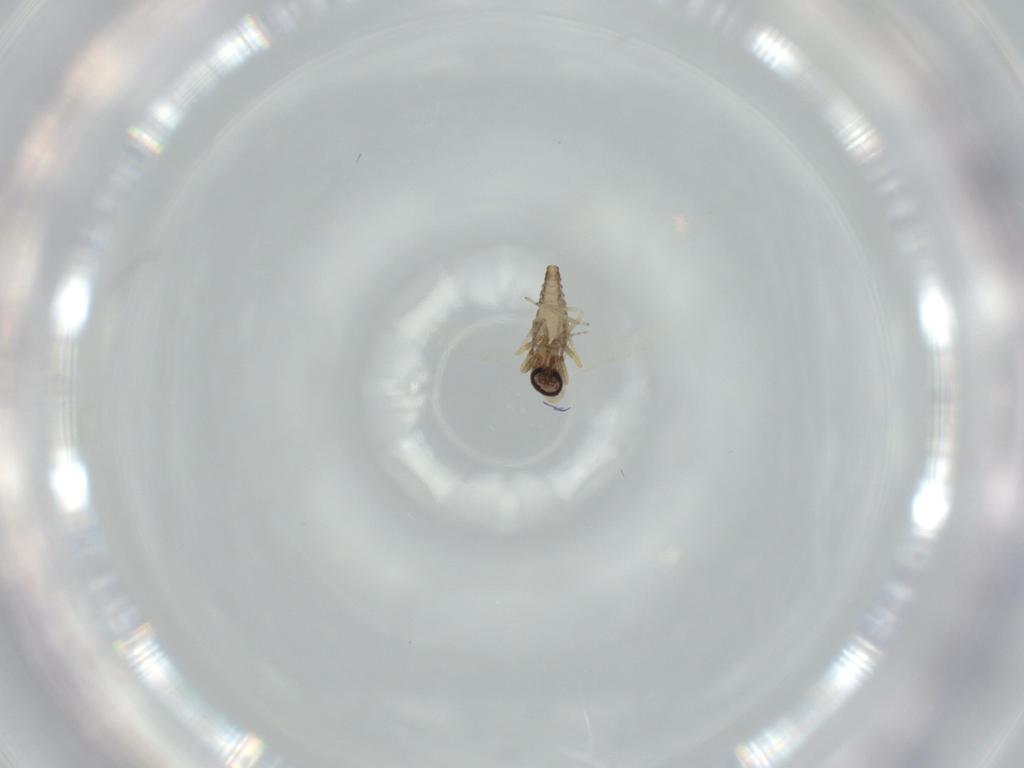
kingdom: Animalia
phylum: Arthropoda
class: Insecta
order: Diptera
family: Ceratopogonidae
